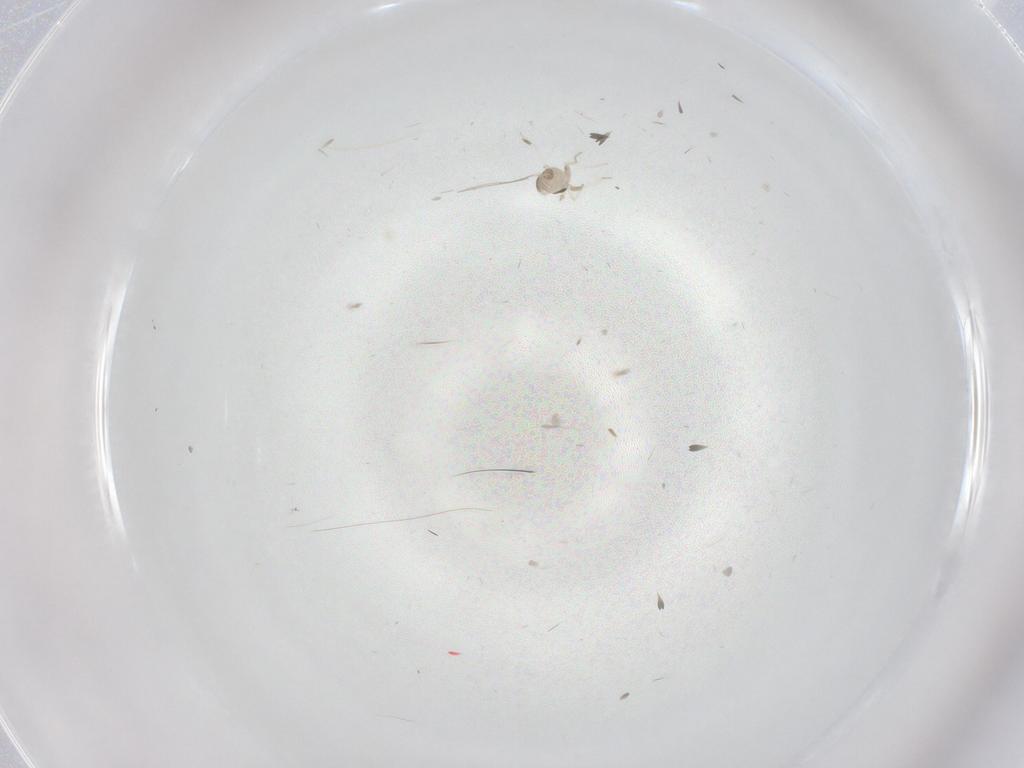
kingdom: Animalia
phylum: Arthropoda
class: Insecta
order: Diptera
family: Cecidomyiidae
